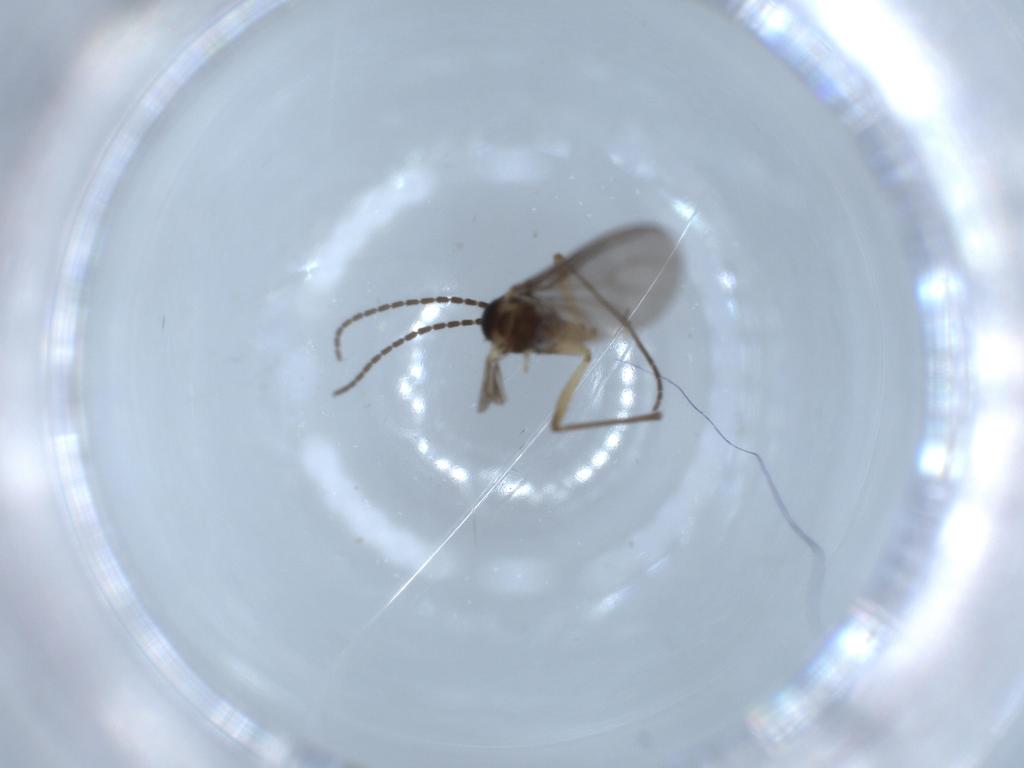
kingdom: Animalia
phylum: Arthropoda
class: Insecta
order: Diptera
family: Sciaridae
